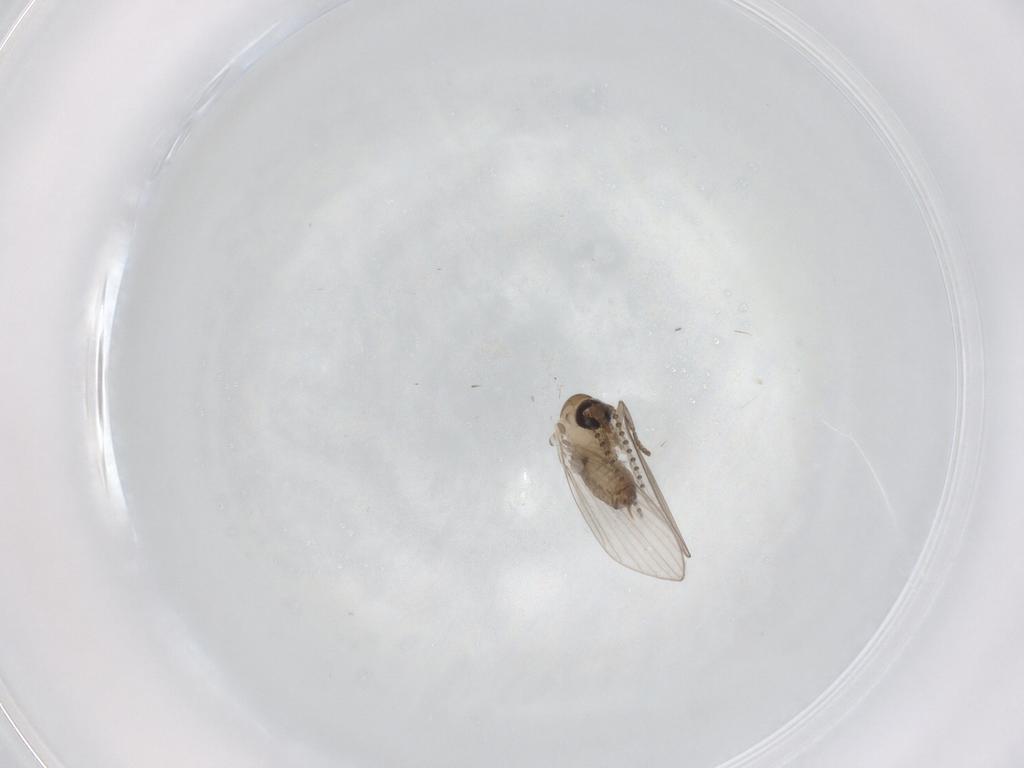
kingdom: Animalia
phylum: Arthropoda
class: Insecta
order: Diptera
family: Psychodidae
